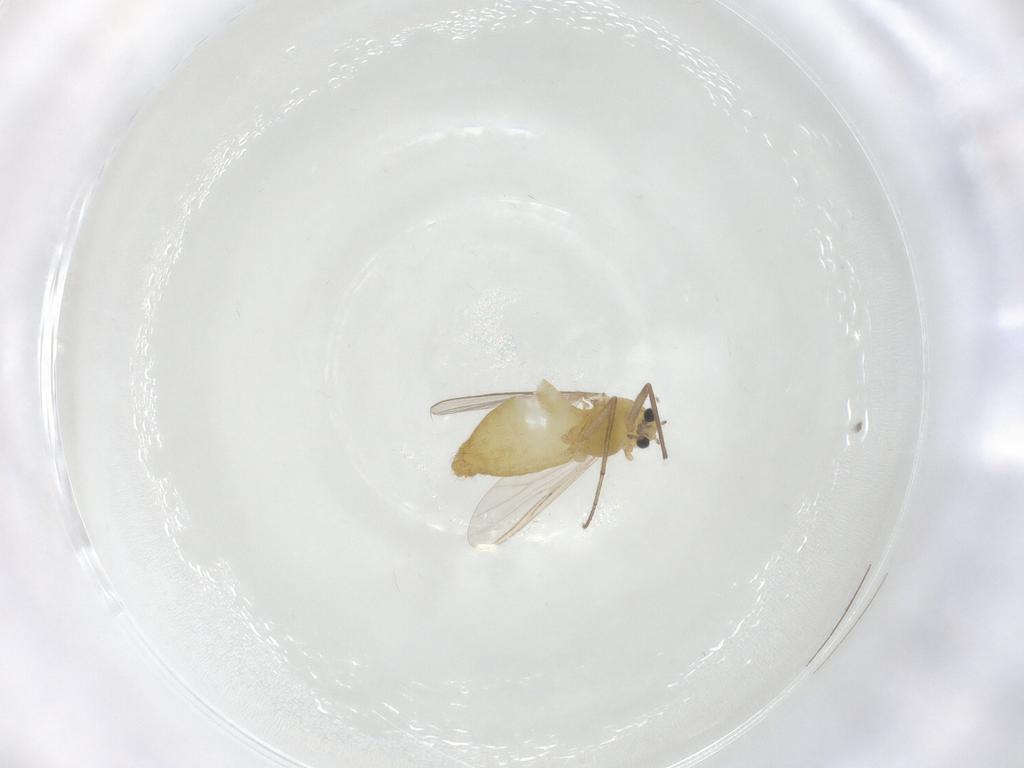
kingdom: Animalia
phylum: Arthropoda
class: Insecta
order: Diptera
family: Chironomidae
